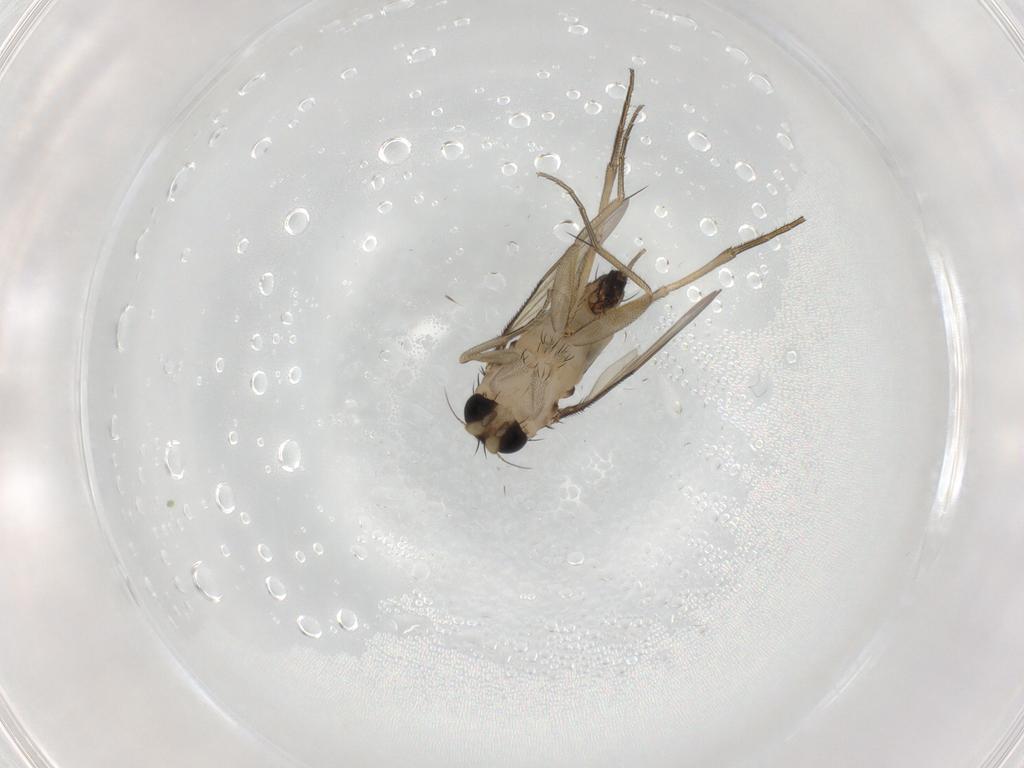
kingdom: Animalia
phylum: Arthropoda
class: Insecta
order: Diptera
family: Phoridae
